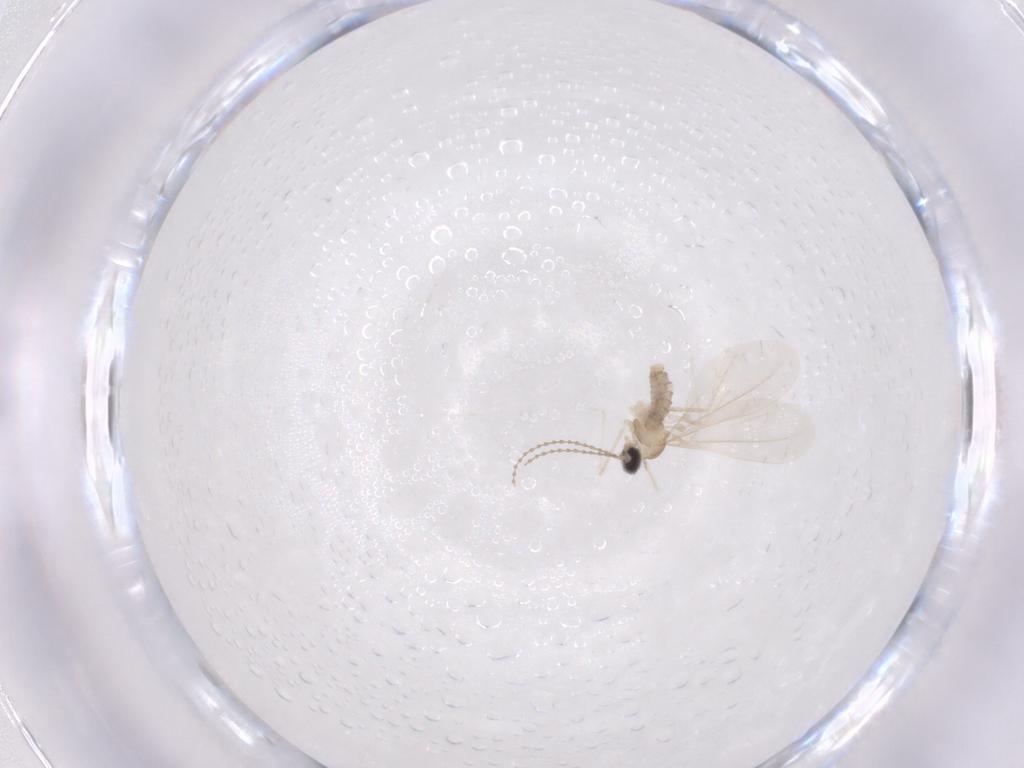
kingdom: Animalia
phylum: Arthropoda
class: Insecta
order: Diptera
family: Cecidomyiidae
